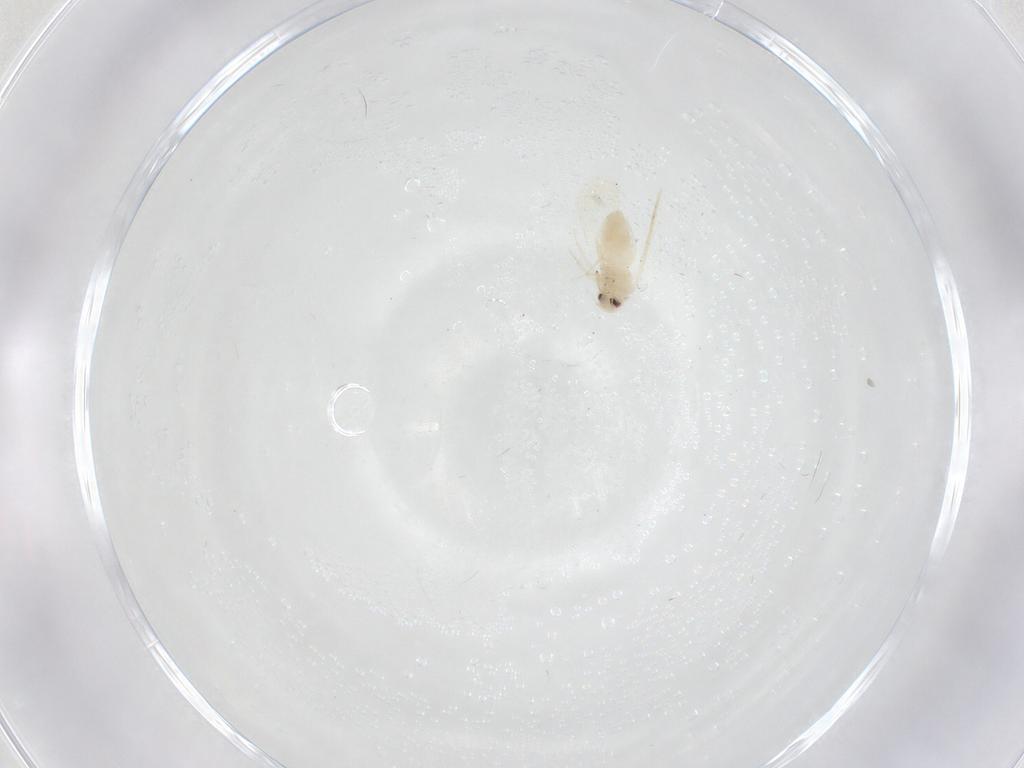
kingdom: Animalia
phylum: Arthropoda
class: Insecta
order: Hemiptera
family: Aleyrodidae
